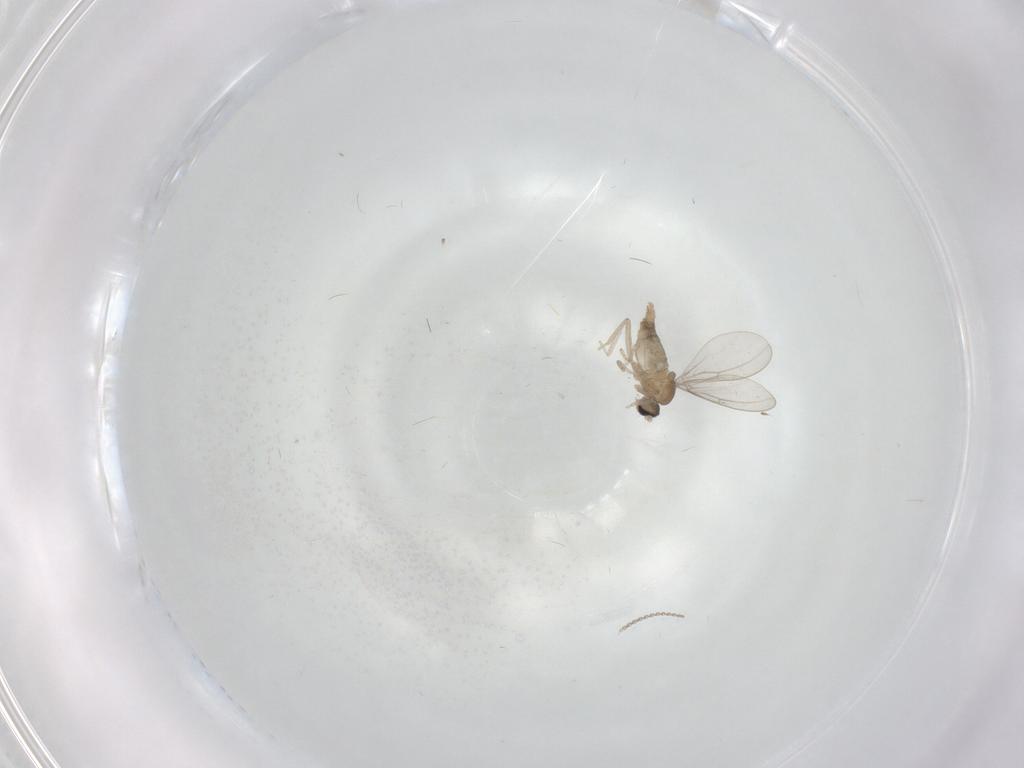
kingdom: Animalia
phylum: Arthropoda
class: Insecta
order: Diptera
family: Cecidomyiidae
